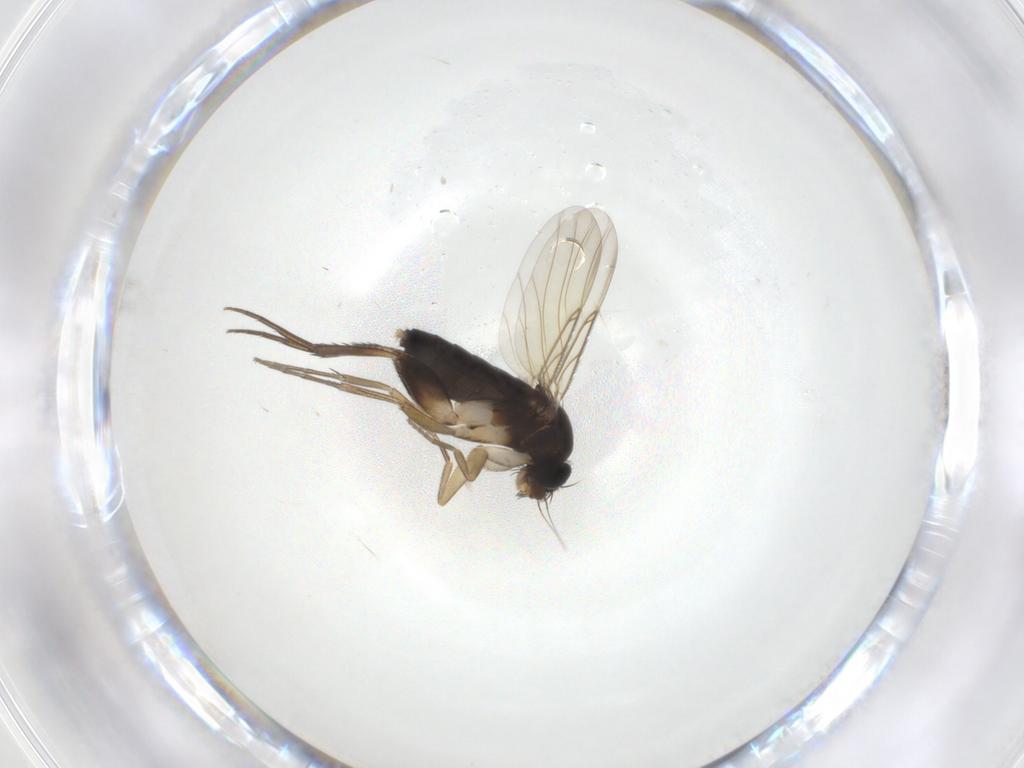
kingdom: Animalia
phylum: Arthropoda
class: Insecta
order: Diptera
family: Phoridae
